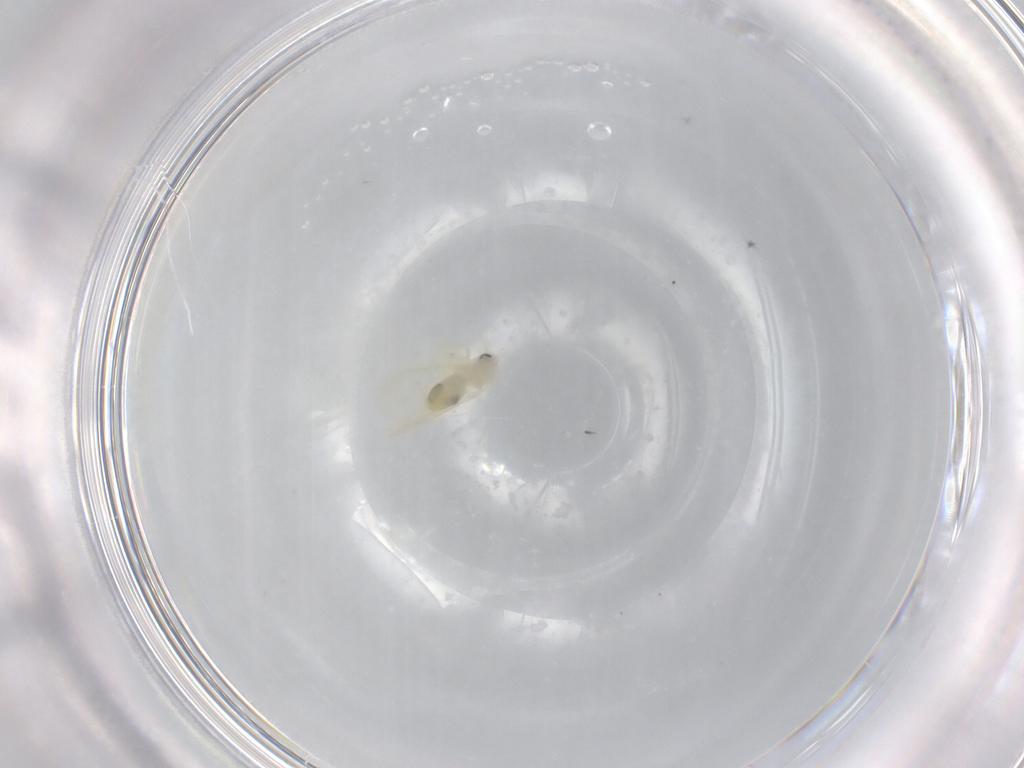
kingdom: Animalia
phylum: Arthropoda
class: Insecta
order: Hemiptera
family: Aleyrodidae
